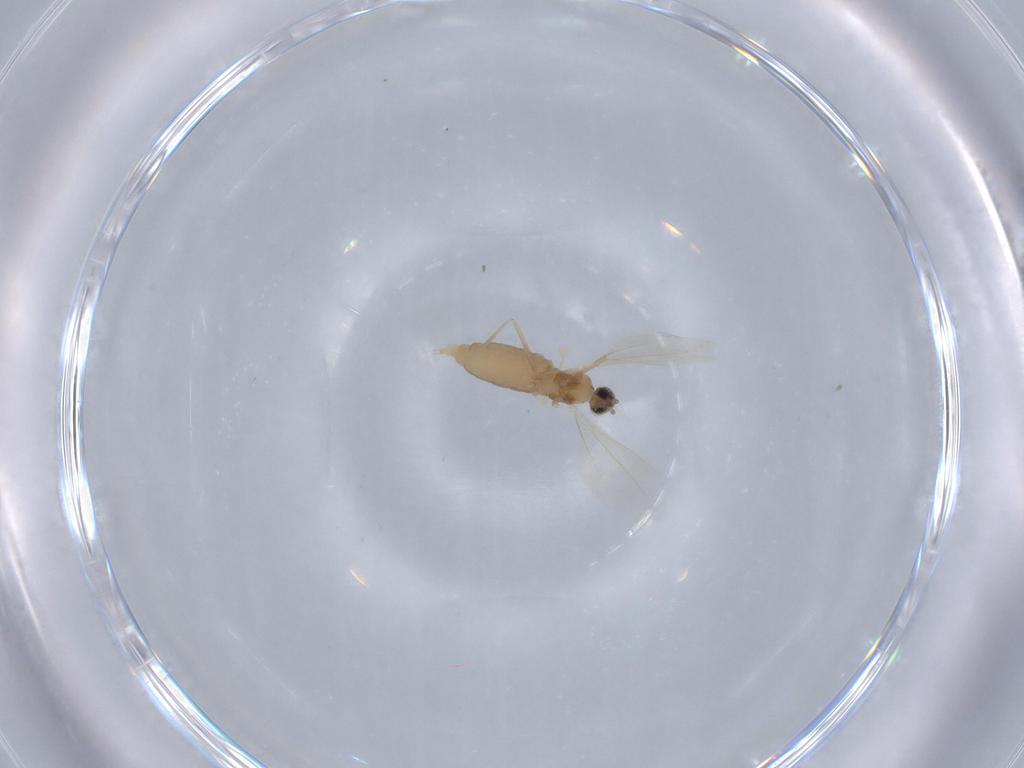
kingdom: Animalia
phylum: Arthropoda
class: Insecta
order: Diptera
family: Cecidomyiidae
